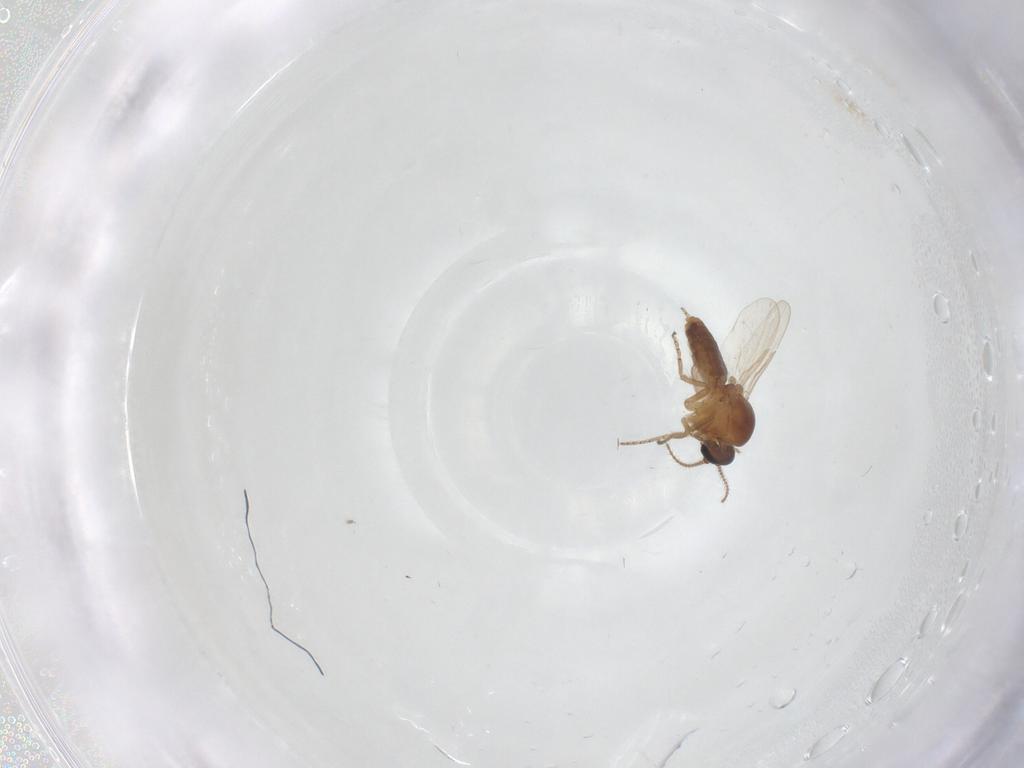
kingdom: Animalia
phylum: Arthropoda
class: Insecta
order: Diptera
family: Ceratopogonidae
